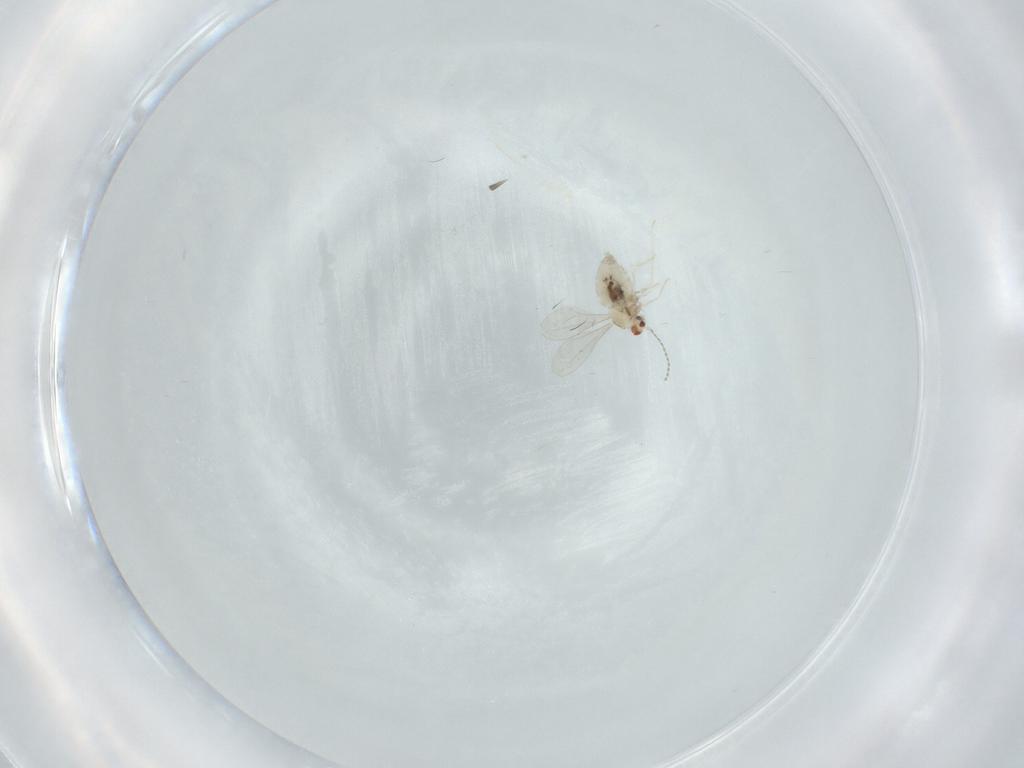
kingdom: Animalia
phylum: Arthropoda
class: Insecta
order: Diptera
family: Cecidomyiidae
